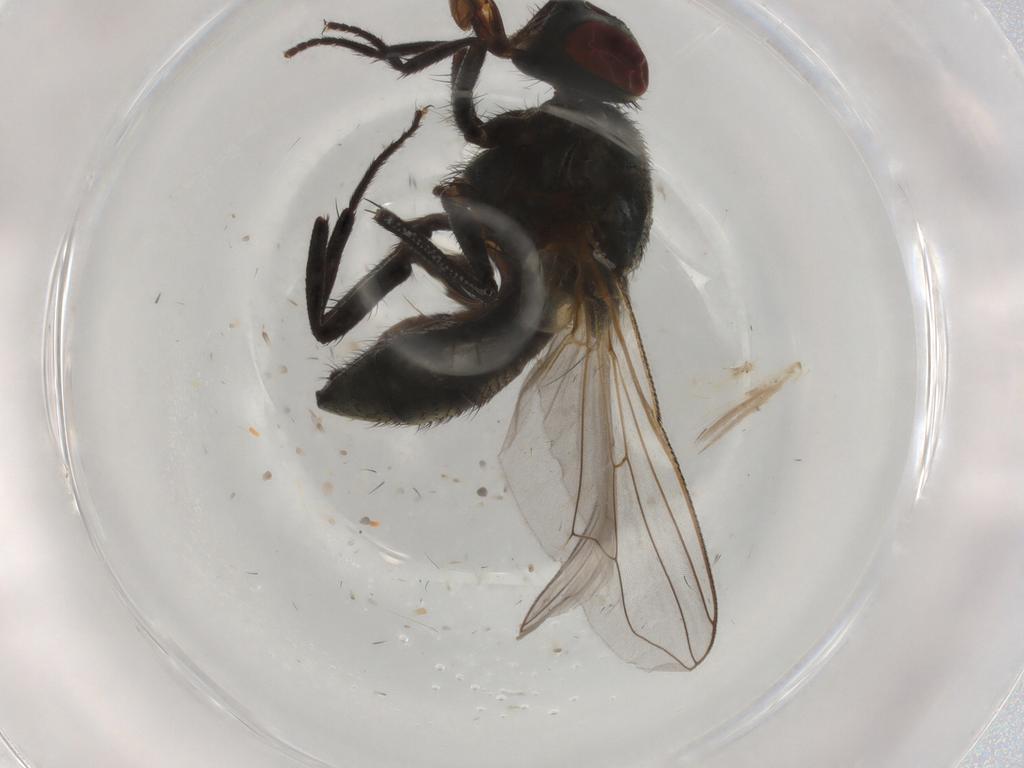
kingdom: Animalia
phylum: Arthropoda
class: Insecta
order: Diptera
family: Muscidae
